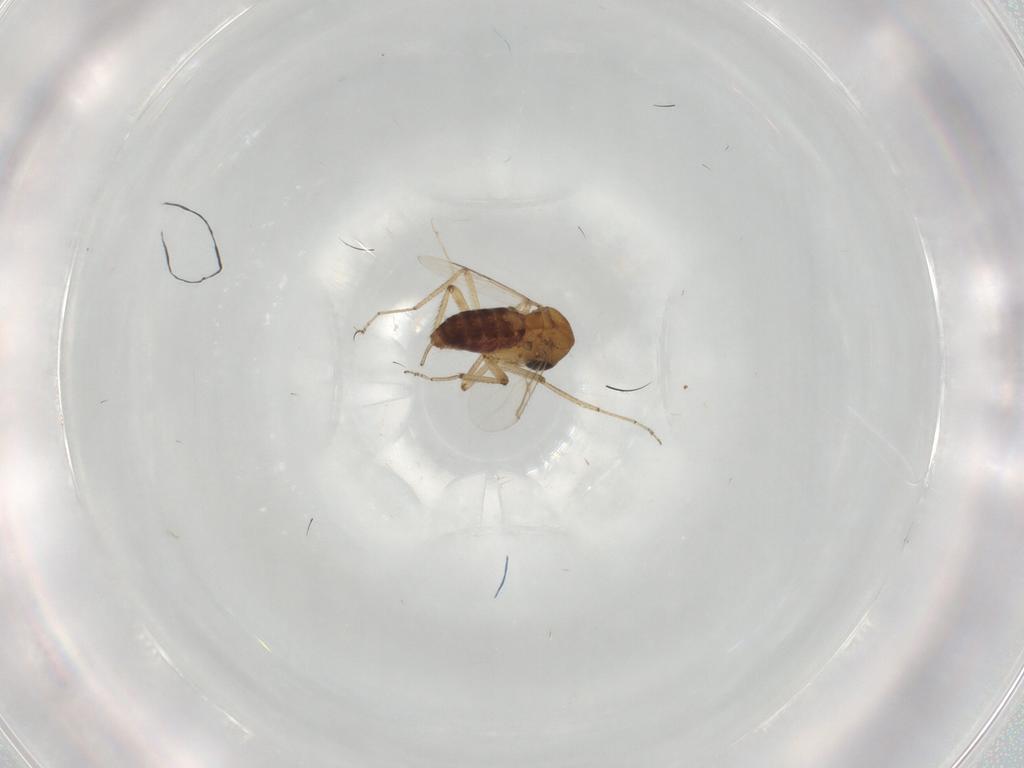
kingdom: Animalia
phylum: Arthropoda
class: Insecta
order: Diptera
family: Ceratopogonidae
